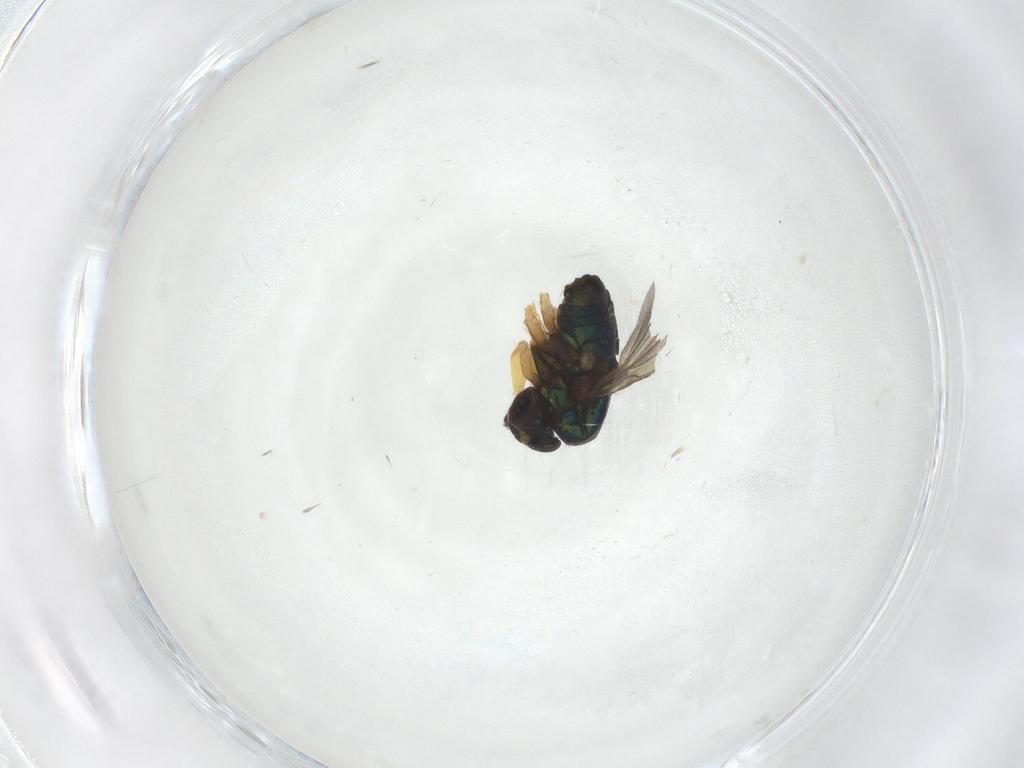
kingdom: Animalia
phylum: Arthropoda
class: Insecta
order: Diptera
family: Dolichopodidae
